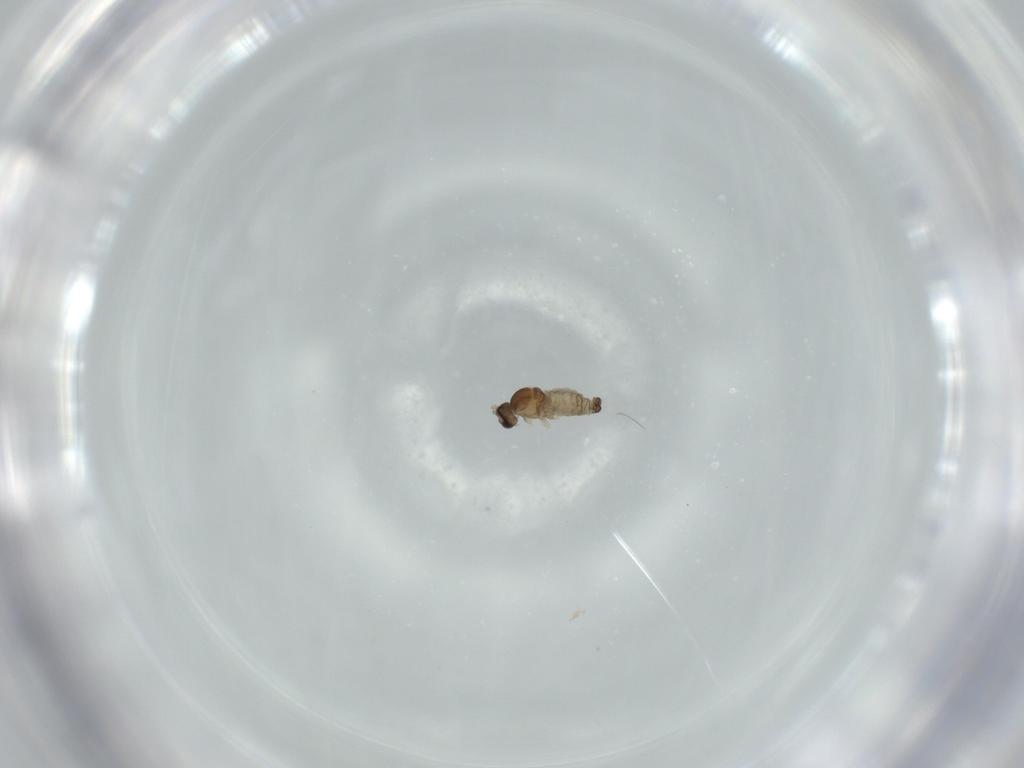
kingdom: Animalia
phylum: Arthropoda
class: Insecta
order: Diptera
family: Cecidomyiidae
